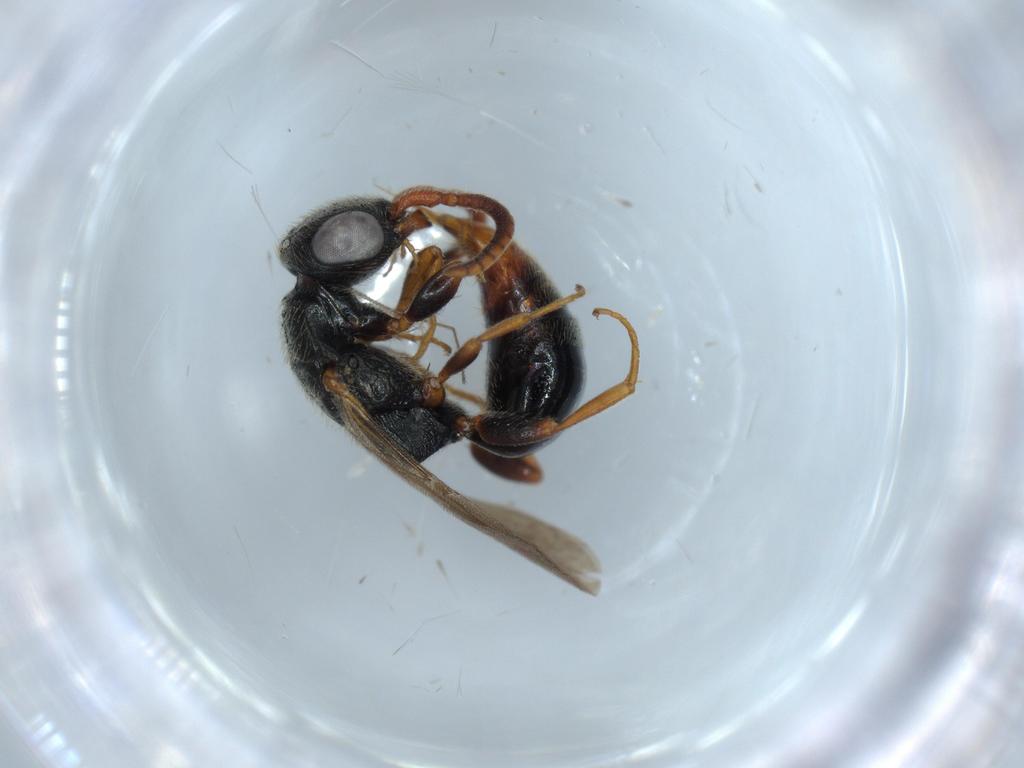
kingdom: Animalia
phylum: Arthropoda
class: Insecta
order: Hymenoptera
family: Bethylidae
